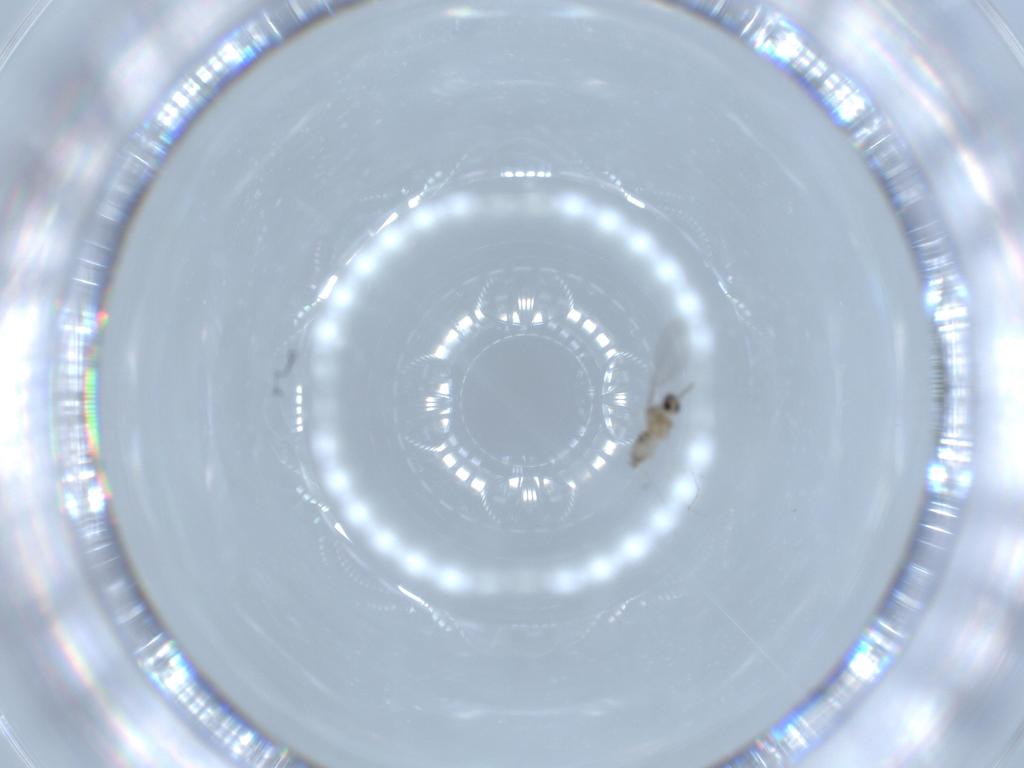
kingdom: Animalia
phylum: Arthropoda
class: Insecta
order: Diptera
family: Cecidomyiidae
